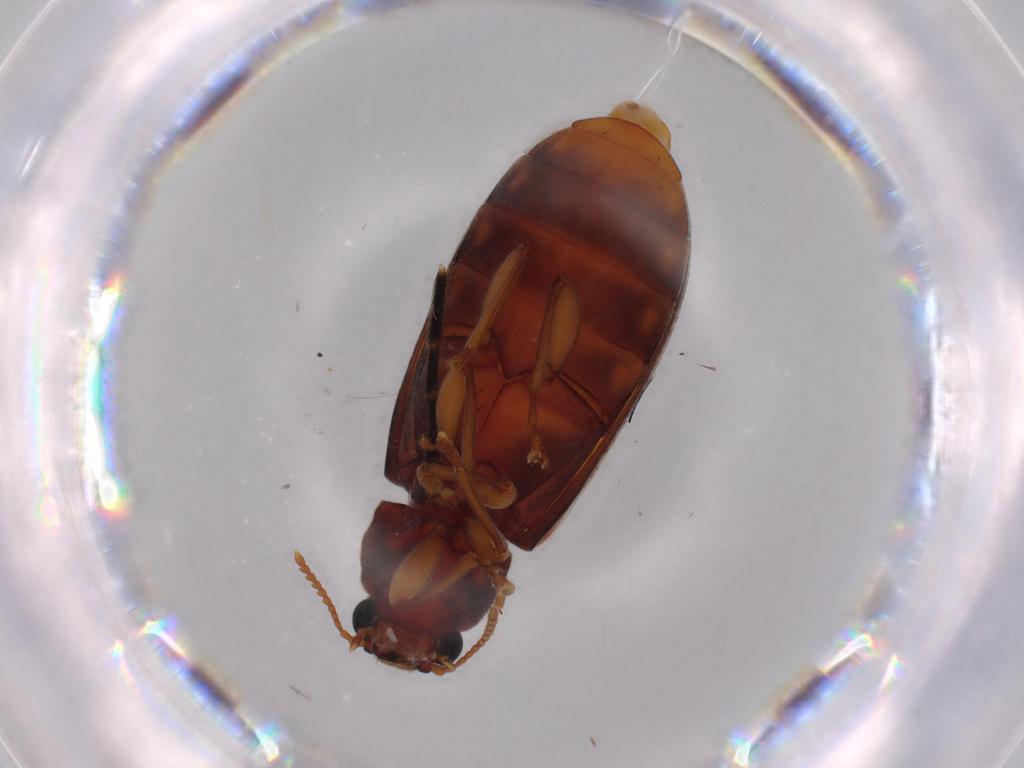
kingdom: Animalia
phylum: Arthropoda
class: Insecta
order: Coleoptera
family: Mycteridae
